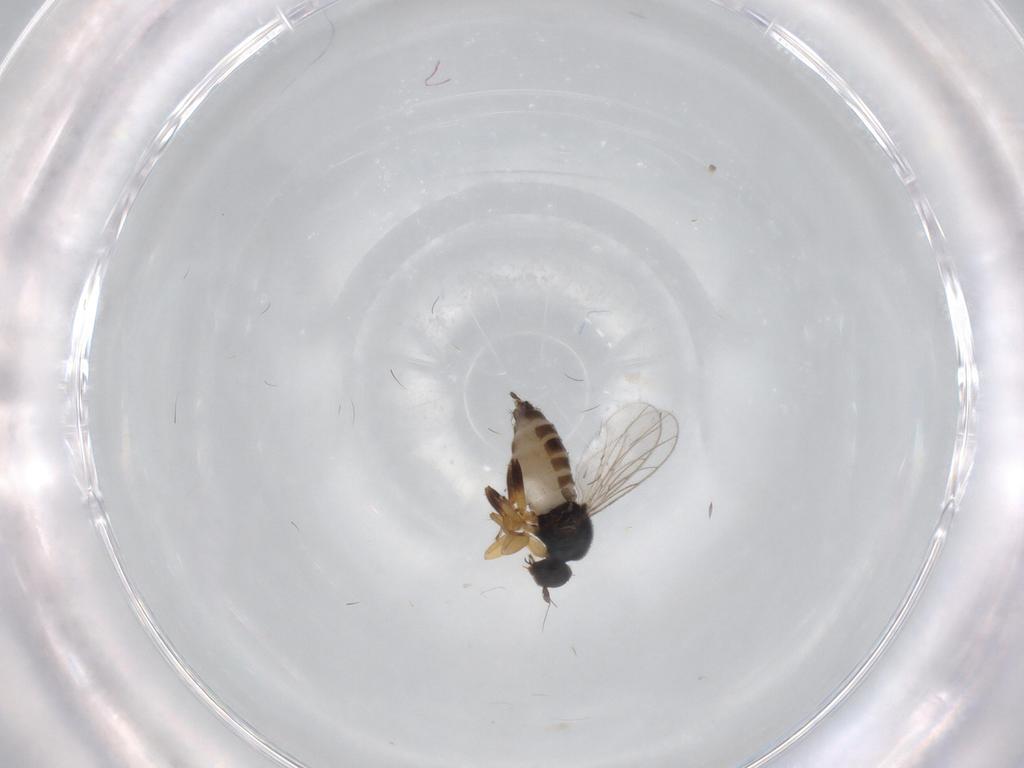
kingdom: Animalia
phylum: Arthropoda
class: Insecta
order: Diptera
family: Hybotidae
